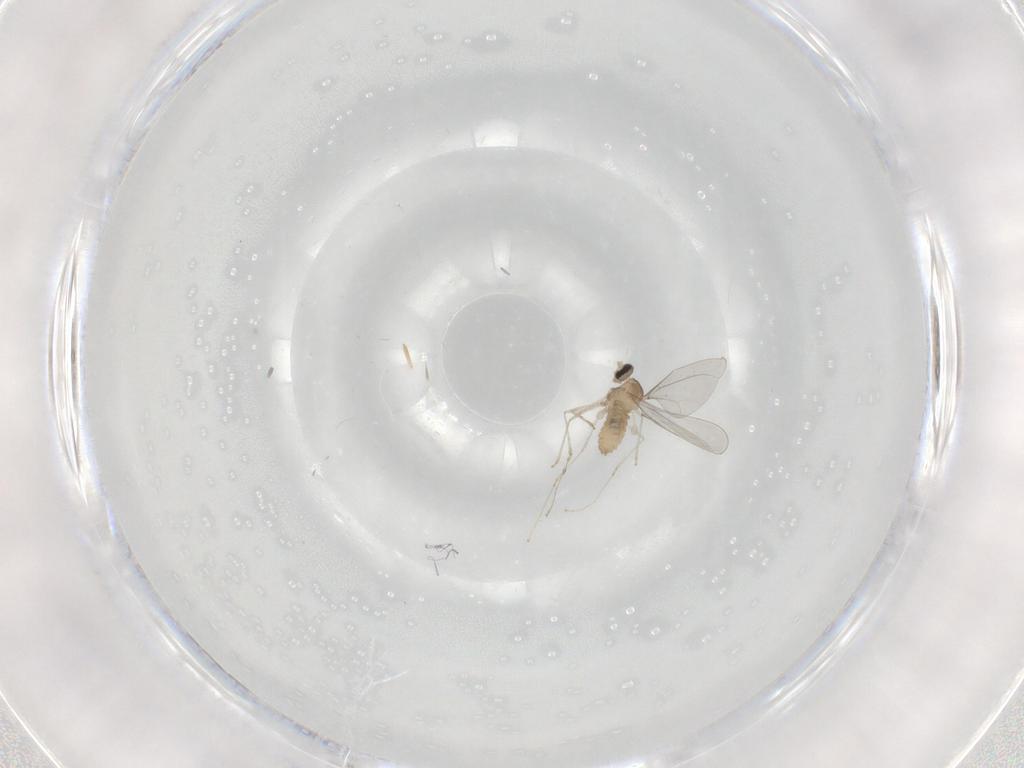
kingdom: Animalia
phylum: Arthropoda
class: Insecta
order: Diptera
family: Cecidomyiidae
